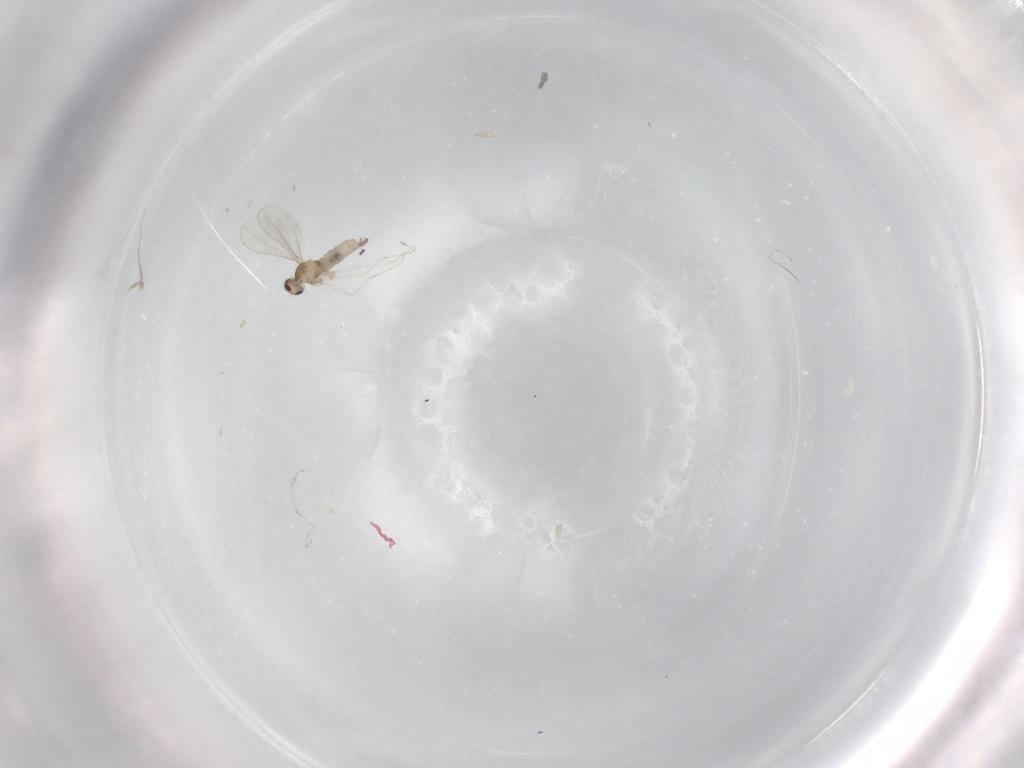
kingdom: Animalia
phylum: Arthropoda
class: Insecta
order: Diptera
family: Cecidomyiidae
